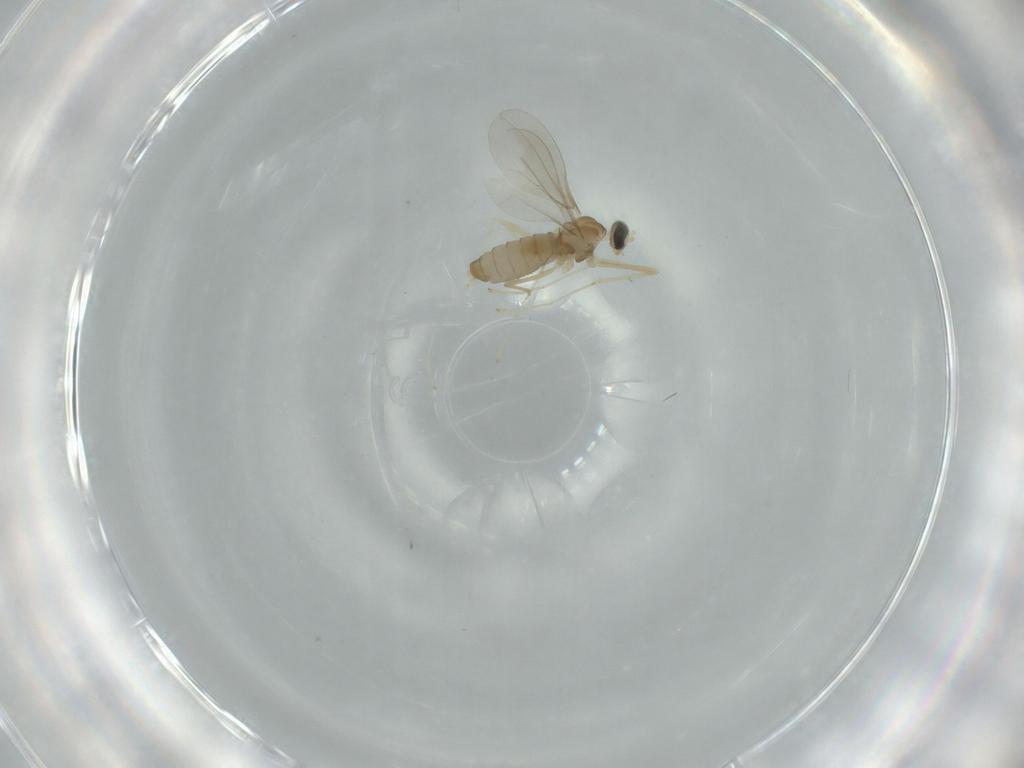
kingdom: Animalia
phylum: Arthropoda
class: Insecta
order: Diptera
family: Cecidomyiidae
